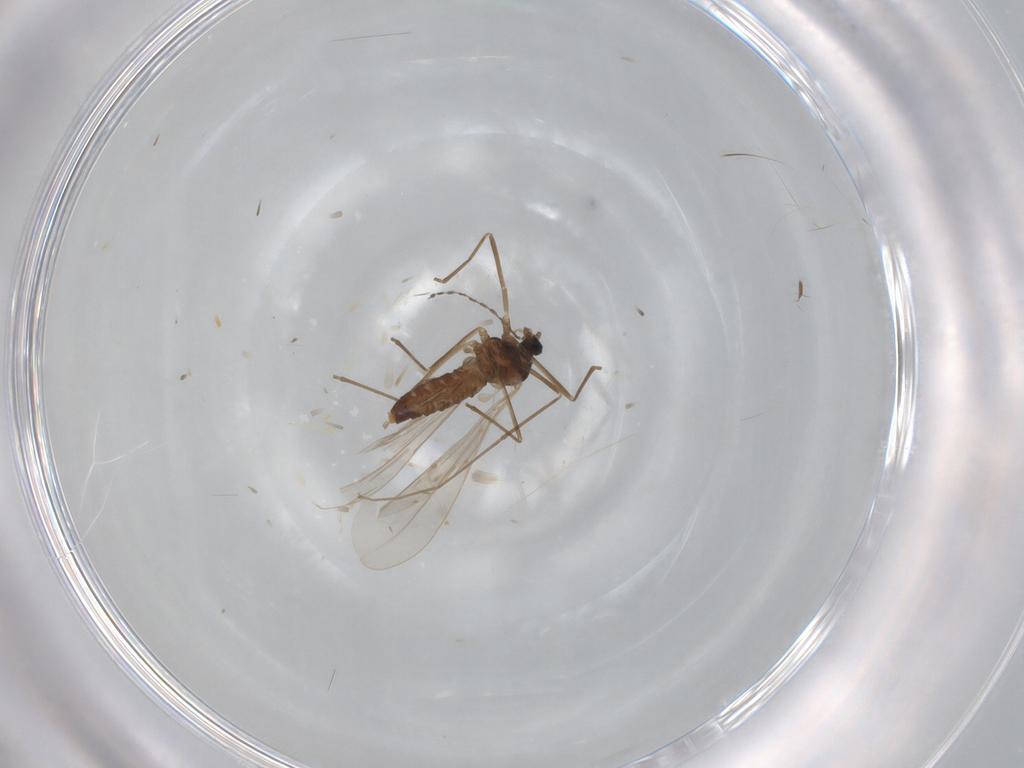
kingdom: Animalia
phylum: Arthropoda
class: Insecta
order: Diptera
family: Cecidomyiidae
